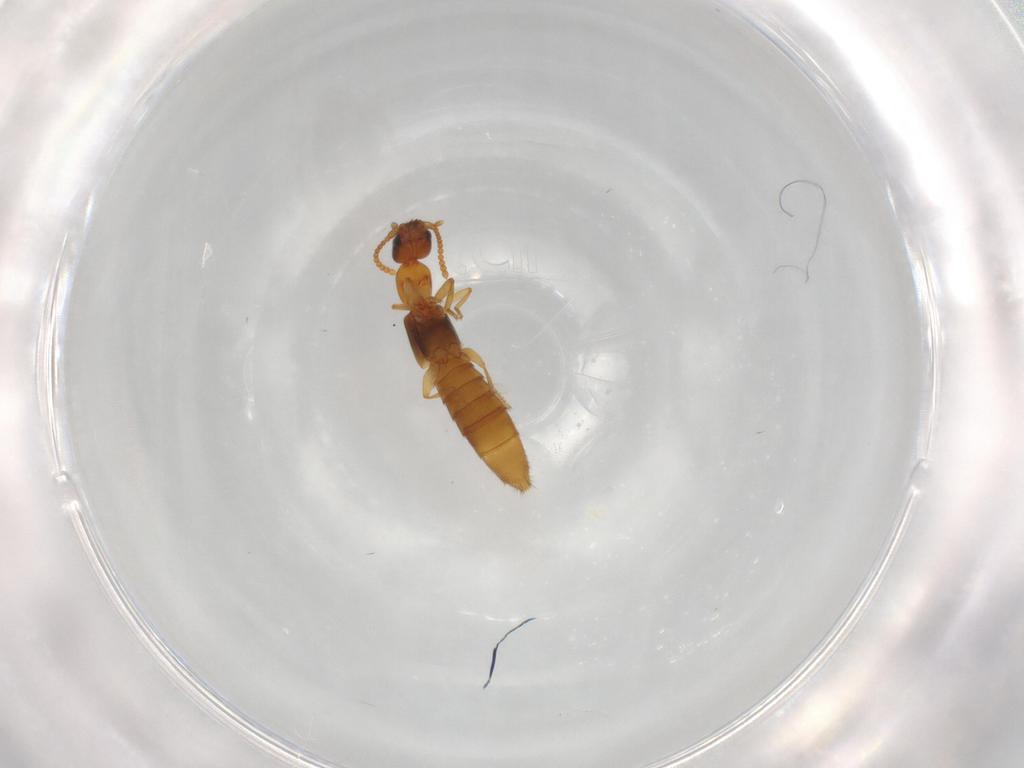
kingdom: Animalia
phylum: Arthropoda
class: Insecta
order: Coleoptera
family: Staphylinidae
